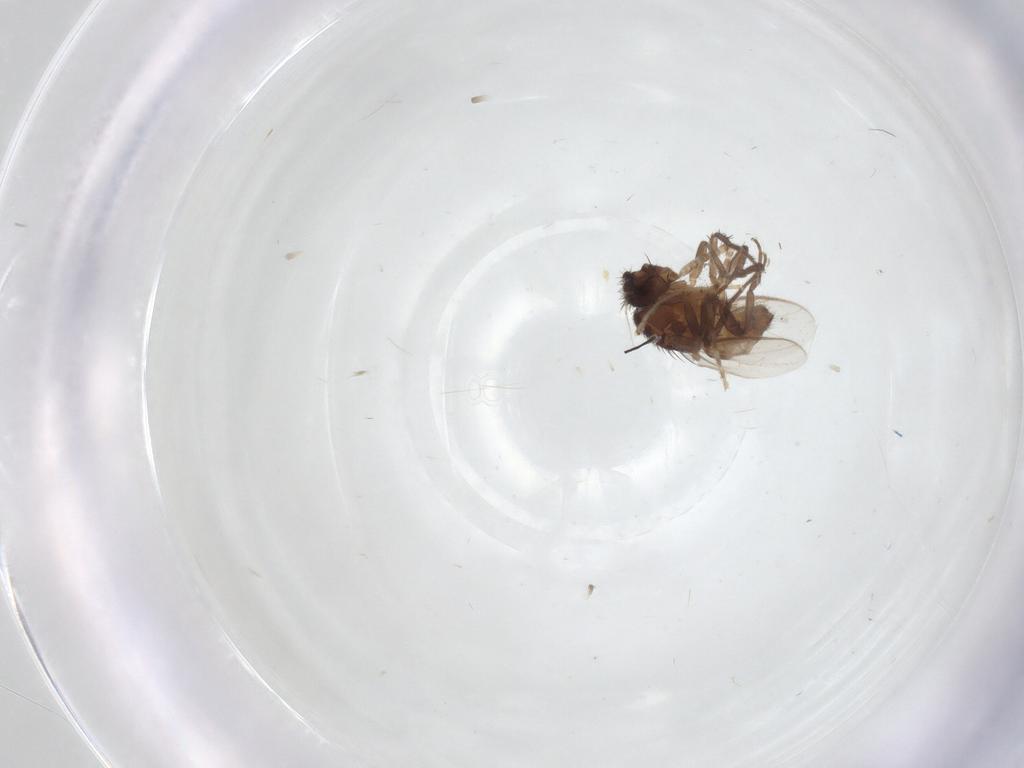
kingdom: Animalia
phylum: Arthropoda
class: Insecta
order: Diptera
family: Sphaeroceridae
